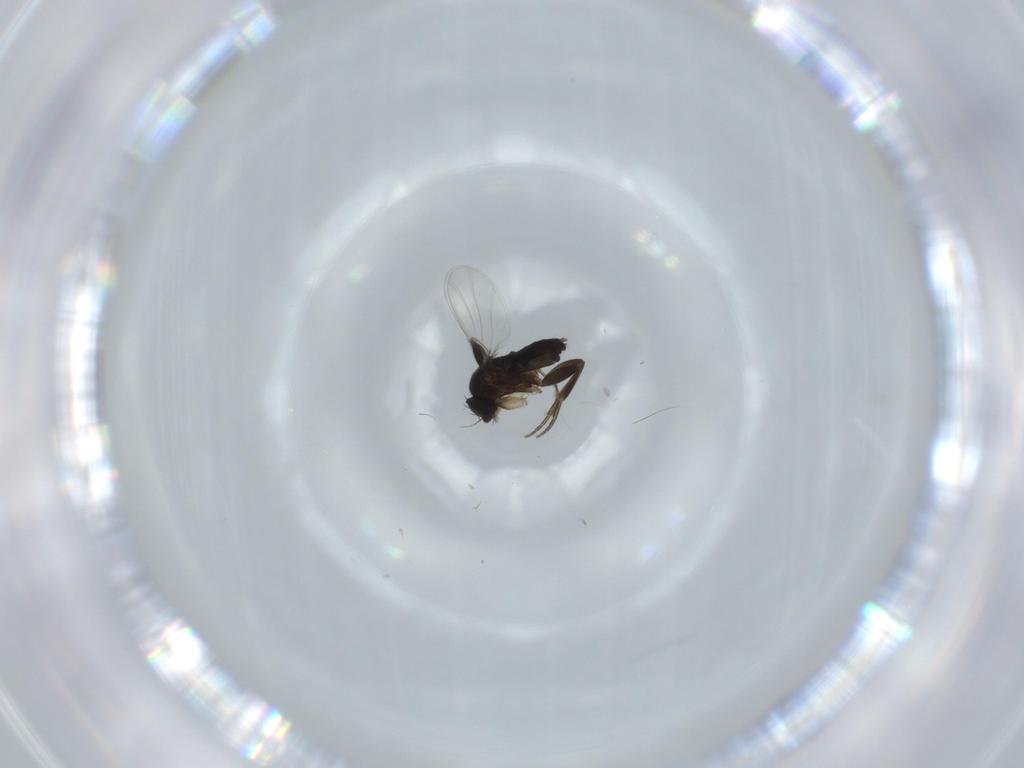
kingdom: Animalia
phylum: Arthropoda
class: Insecta
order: Diptera
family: Phoridae
